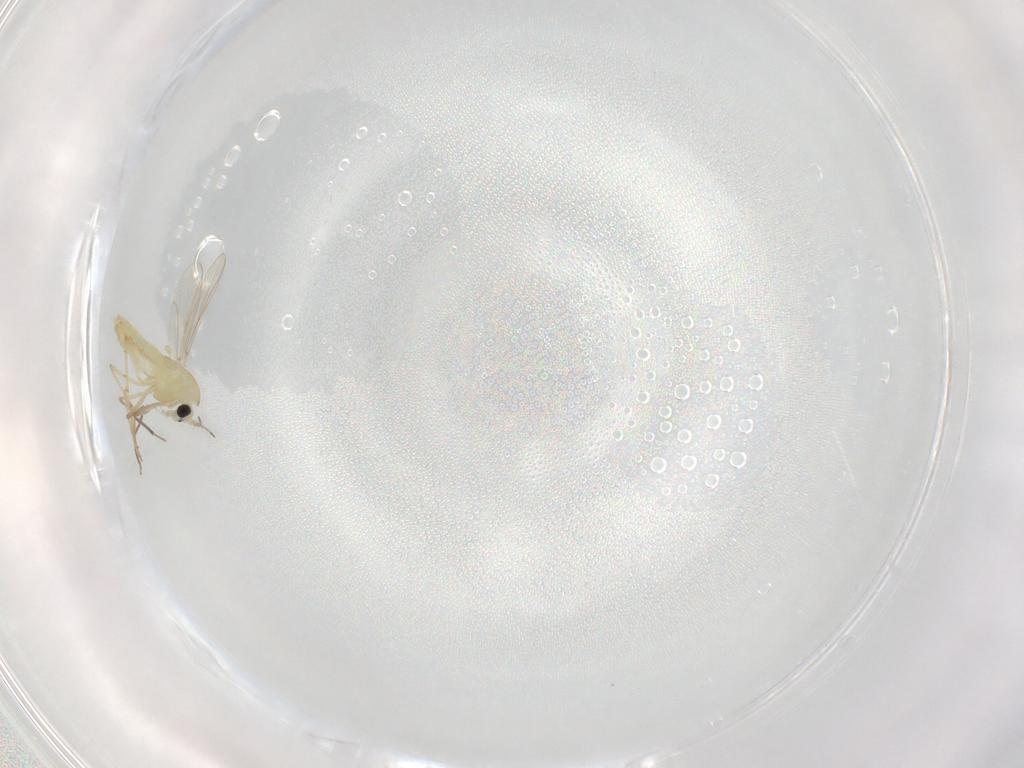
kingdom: Animalia
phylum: Arthropoda
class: Insecta
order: Diptera
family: Chironomidae
